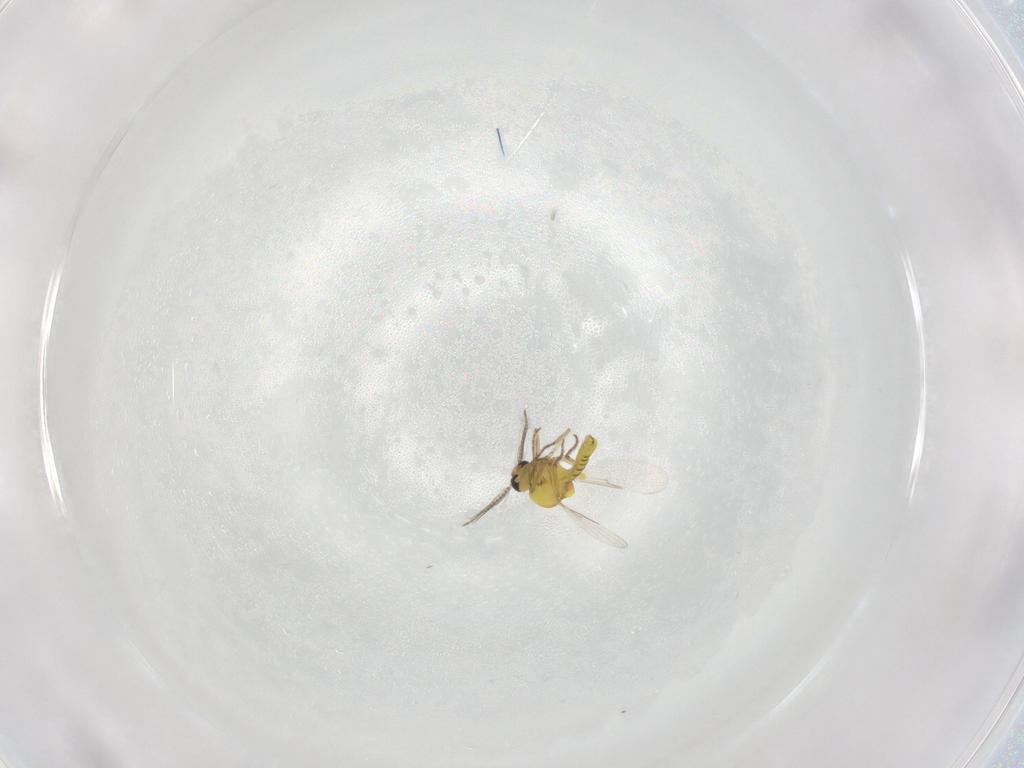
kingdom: Animalia
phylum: Arthropoda
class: Insecta
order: Diptera
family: Ceratopogonidae
